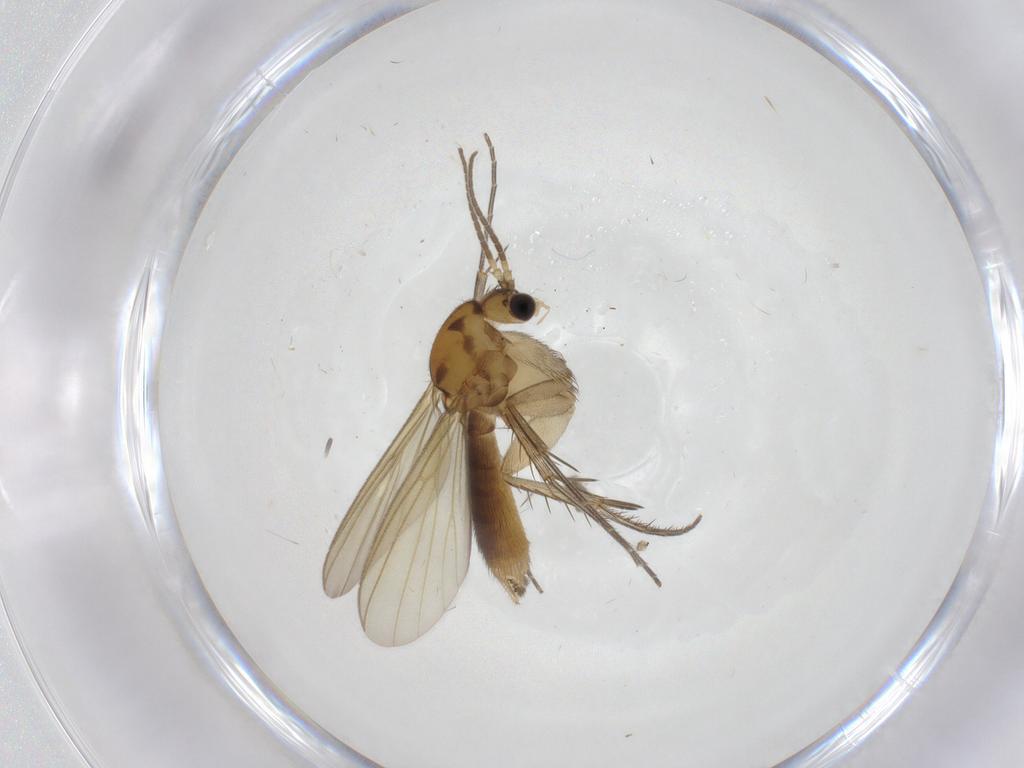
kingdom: Animalia
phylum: Arthropoda
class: Insecta
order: Diptera
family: Mycetophilidae
